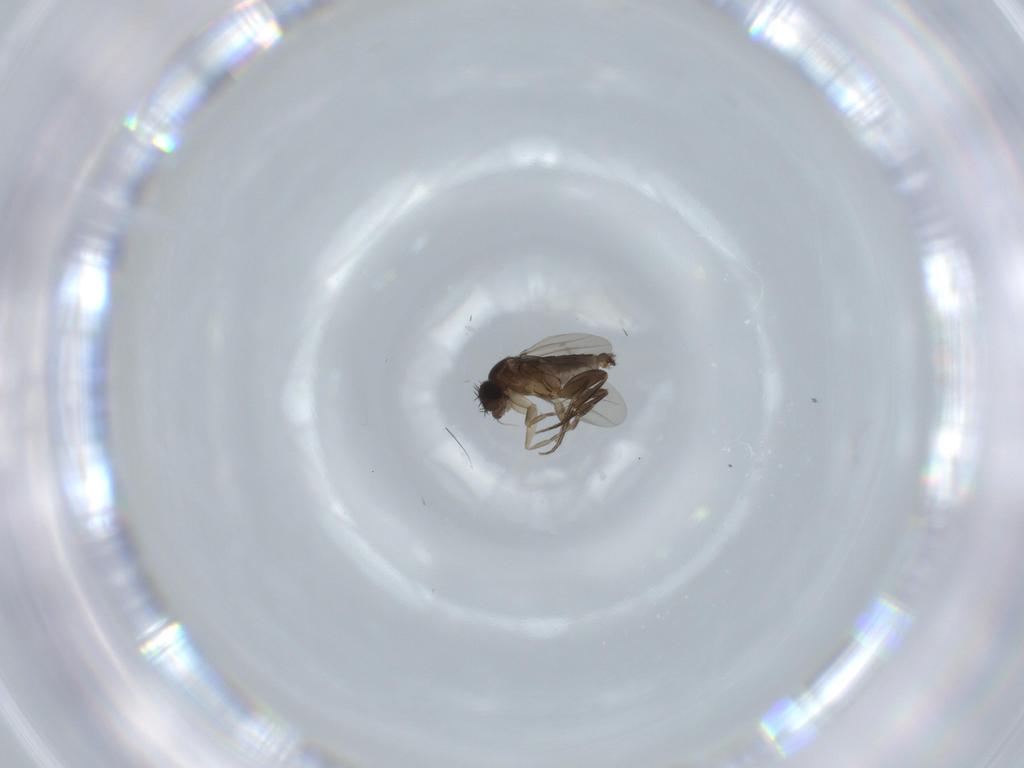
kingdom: Animalia
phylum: Arthropoda
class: Insecta
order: Diptera
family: Phoridae
